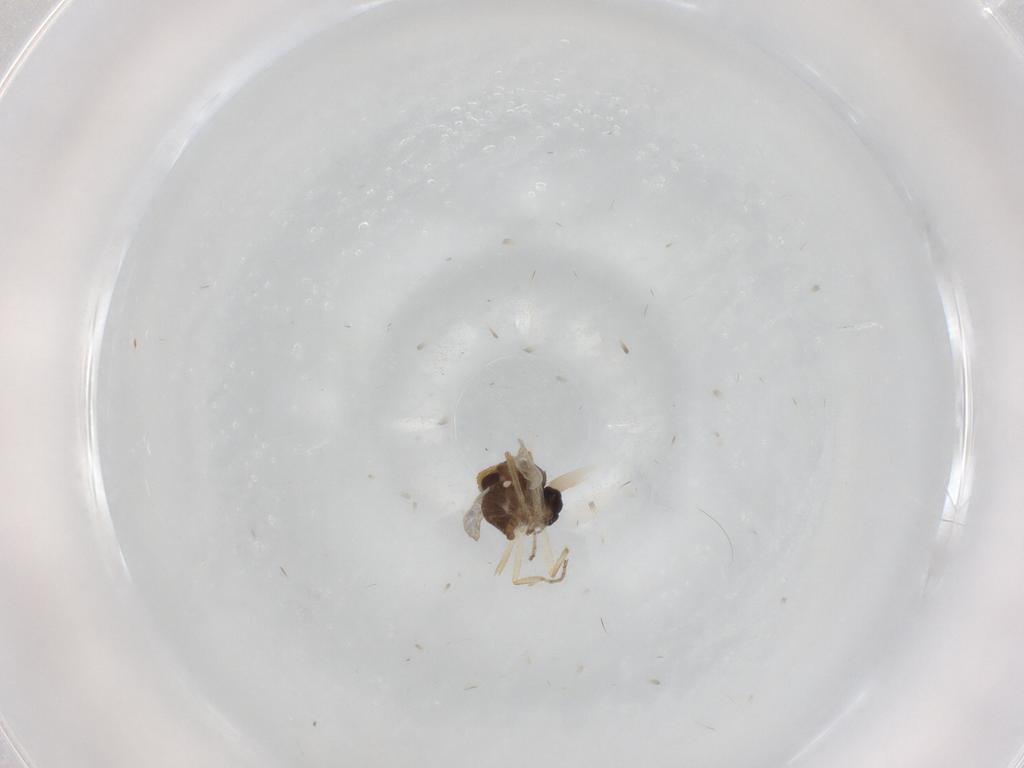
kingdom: Animalia
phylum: Arthropoda
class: Insecta
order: Diptera
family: Ceratopogonidae
